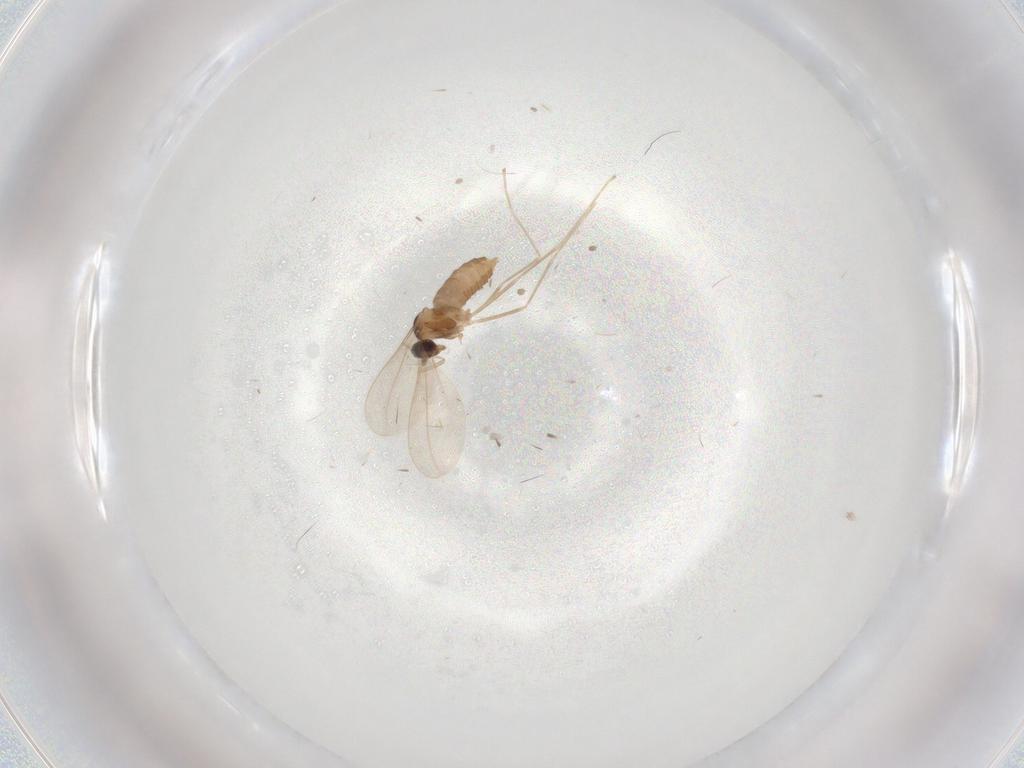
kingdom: Animalia
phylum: Arthropoda
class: Insecta
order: Diptera
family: Cecidomyiidae
